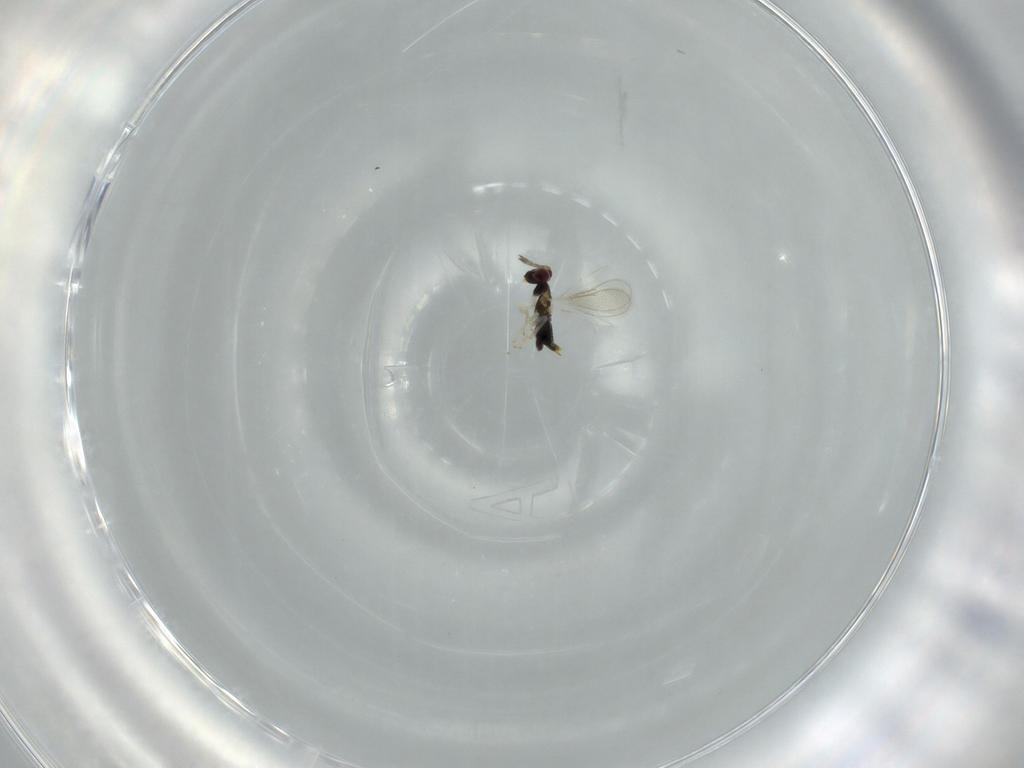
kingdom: Animalia
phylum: Arthropoda
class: Insecta
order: Hymenoptera
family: Aphelinidae
